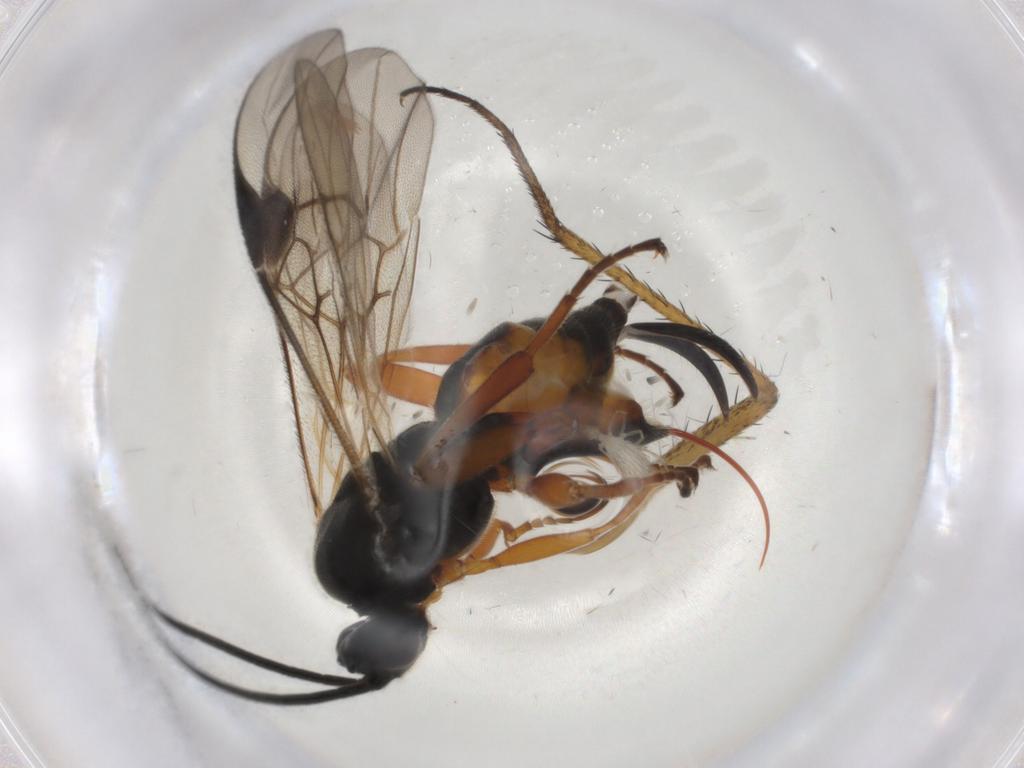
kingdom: Animalia
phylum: Arthropoda
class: Insecta
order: Lepidoptera
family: Tortricidae
